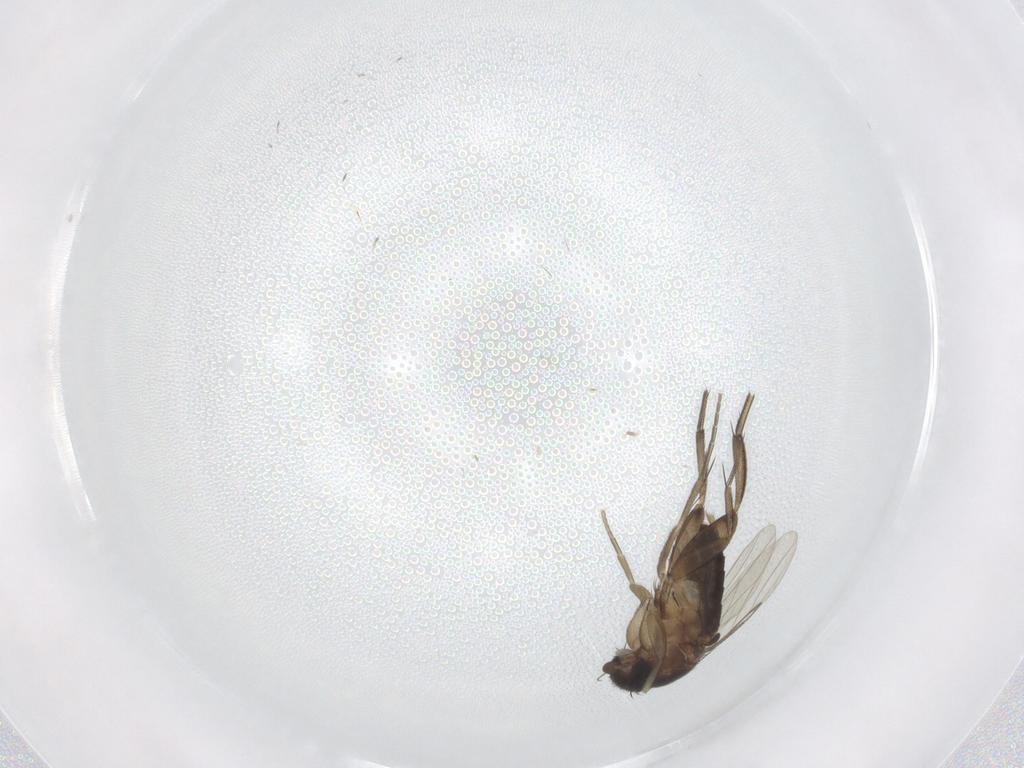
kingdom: Animalia
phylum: Arthropoda
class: Insecta
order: Diptera
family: Phoridae
